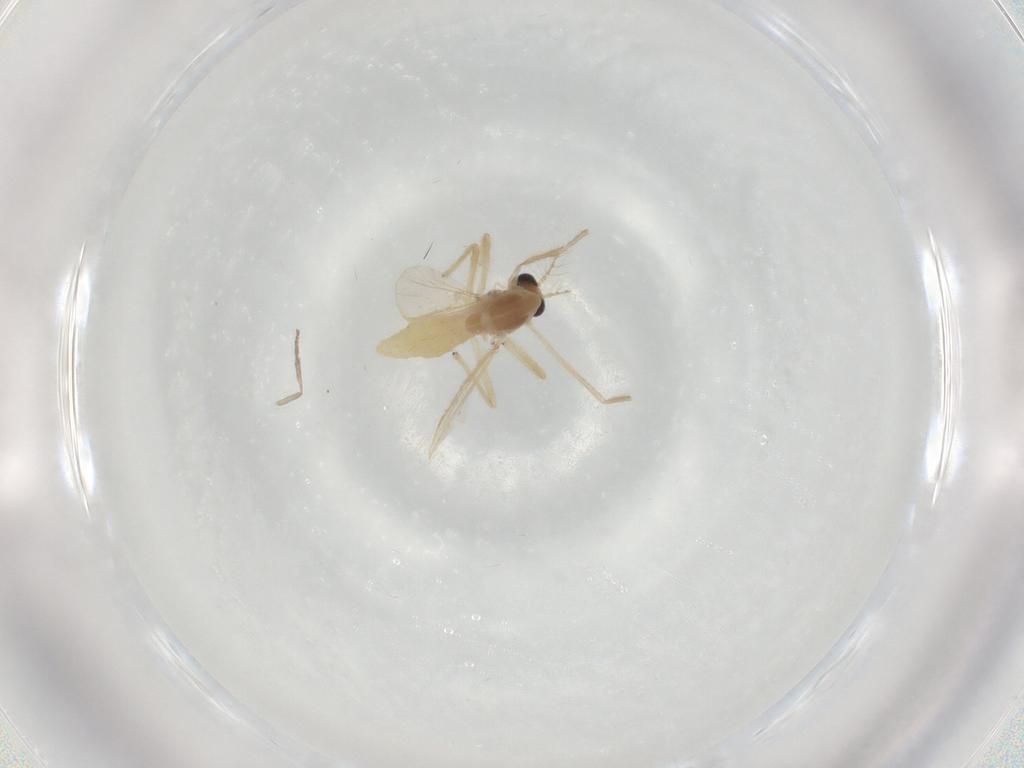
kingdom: Animalia
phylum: Arthropoda
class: Insecta
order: Diptera
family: Chironomidae
